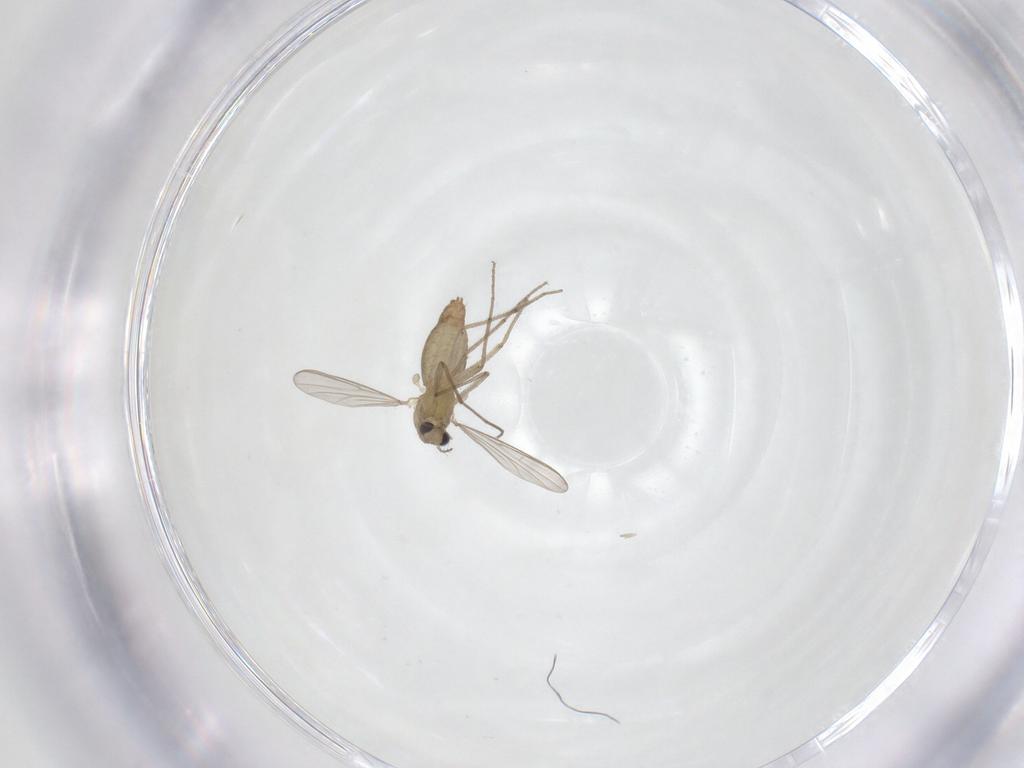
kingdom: Animalia
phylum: Arthropoda
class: Insecta
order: Diptera
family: Chironomidae
